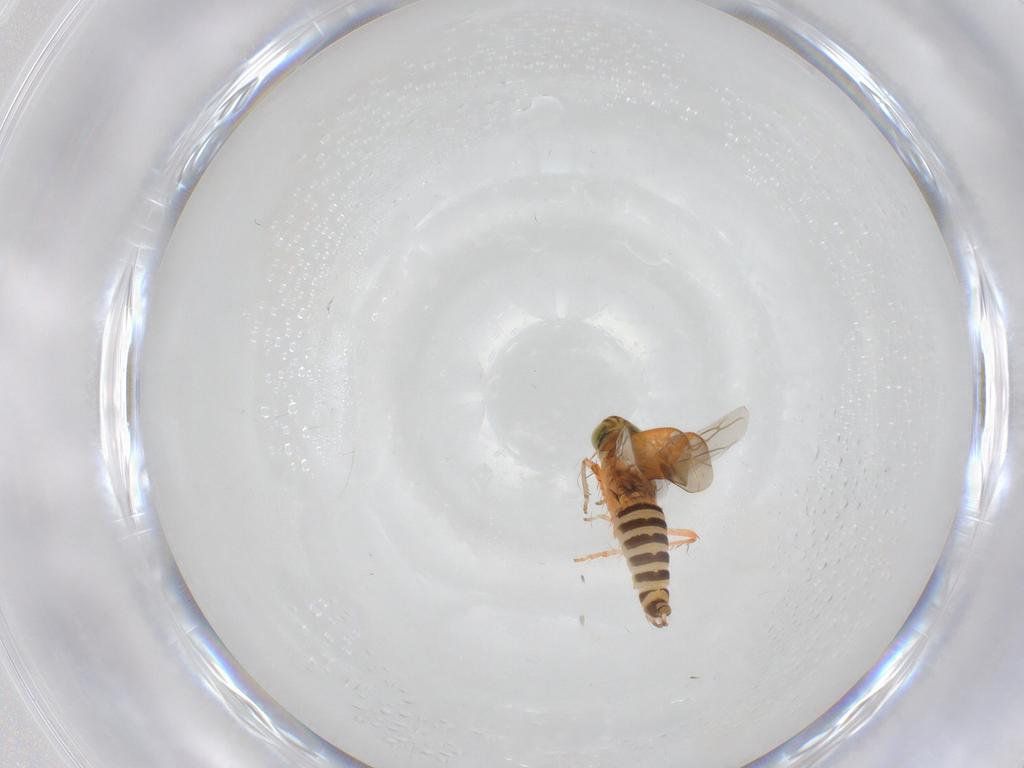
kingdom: Animalia
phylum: Arthropoda
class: Insecta
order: Hemiptera
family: Cicadellidae
